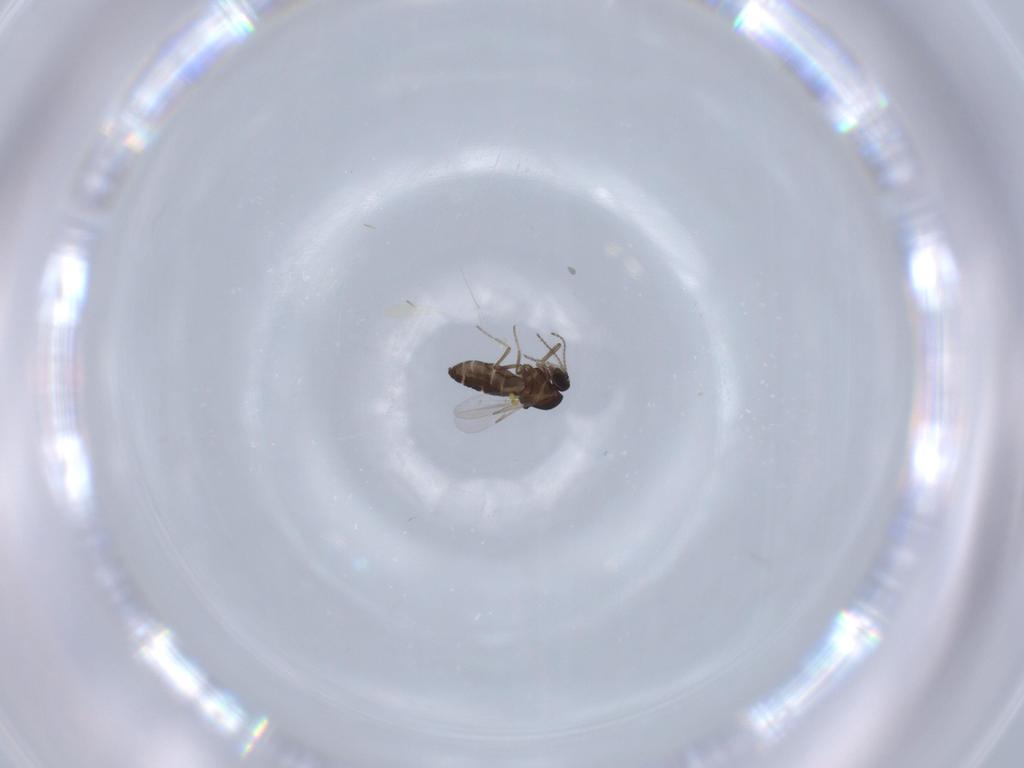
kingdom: Animalia
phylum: Arthropoda
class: Insecta
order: Diptera
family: Ceratopogonidae
